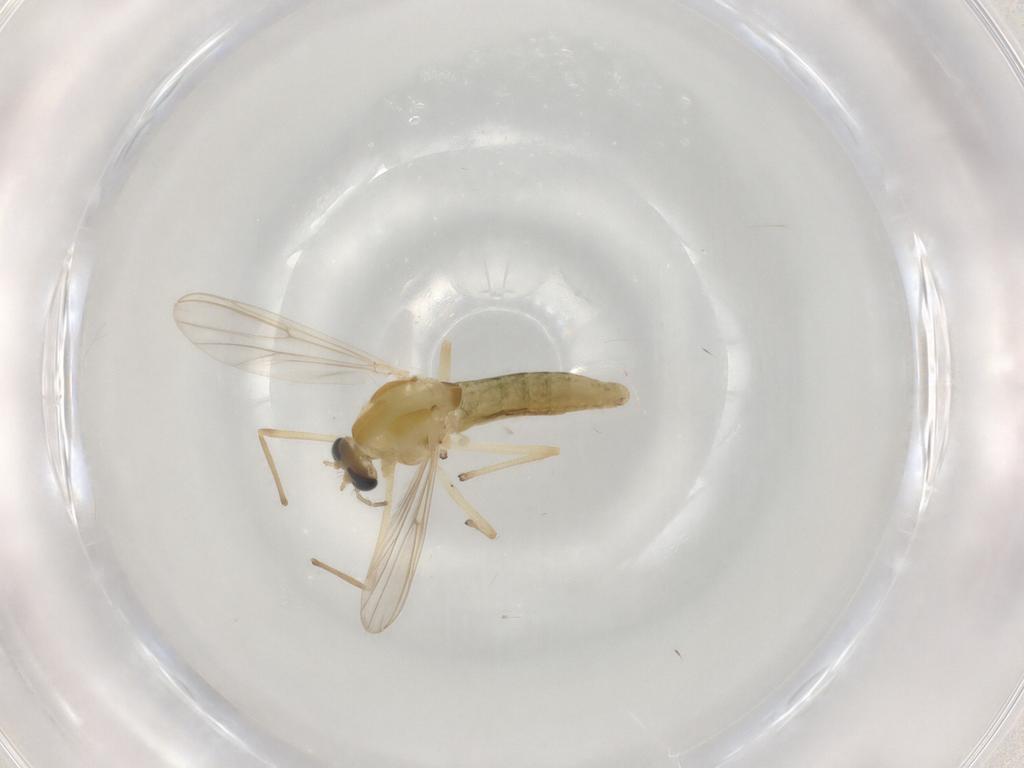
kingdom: Animalia
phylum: Arthropoda
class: Insecta
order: Diptera
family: Chironomidae
